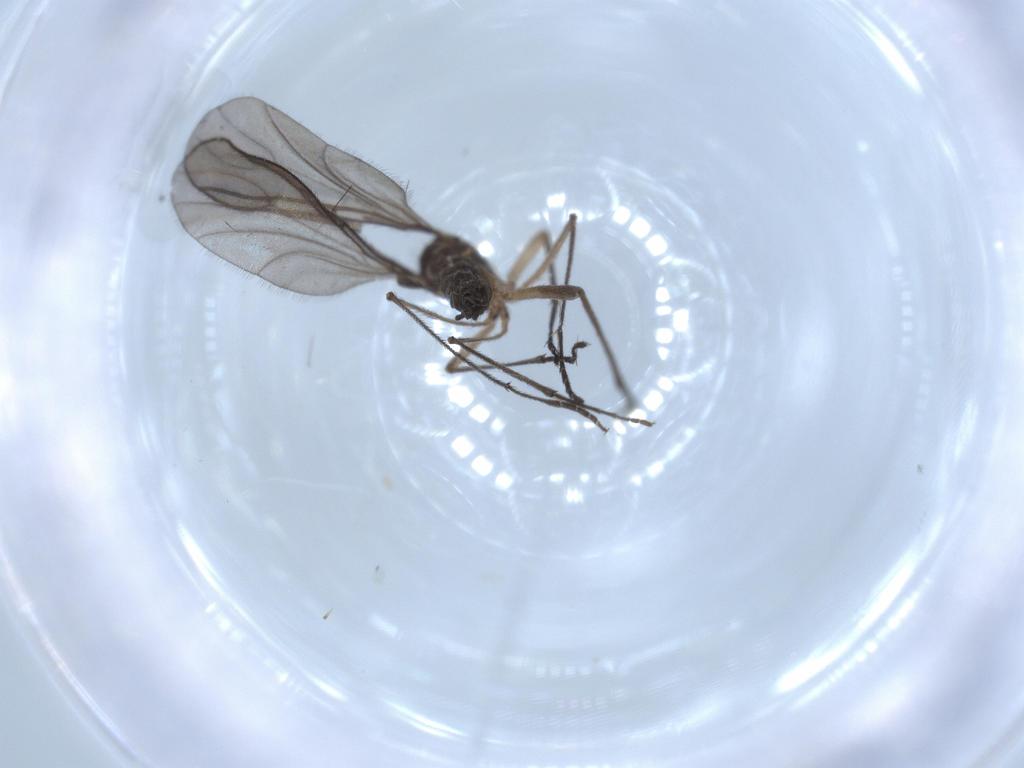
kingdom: Animalia
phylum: Arthropoda
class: Insecta
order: Diptera
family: Sciaridae
